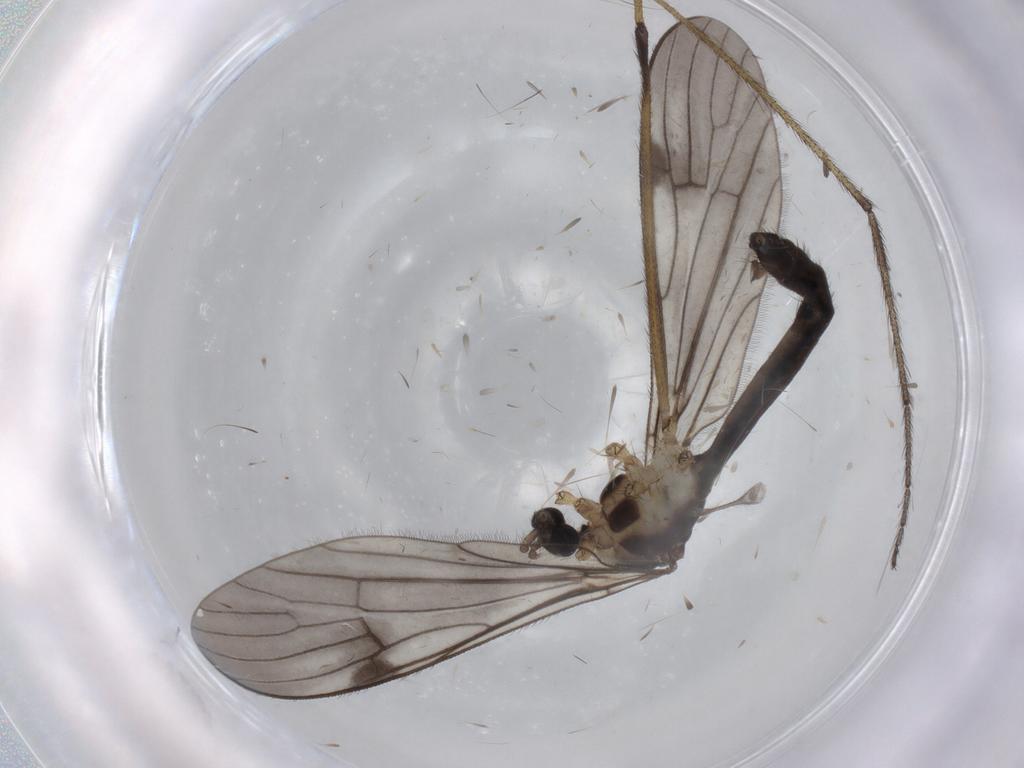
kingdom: Animalia
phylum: Arthropoda
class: Insecta
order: Diptera
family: Limoniidae
